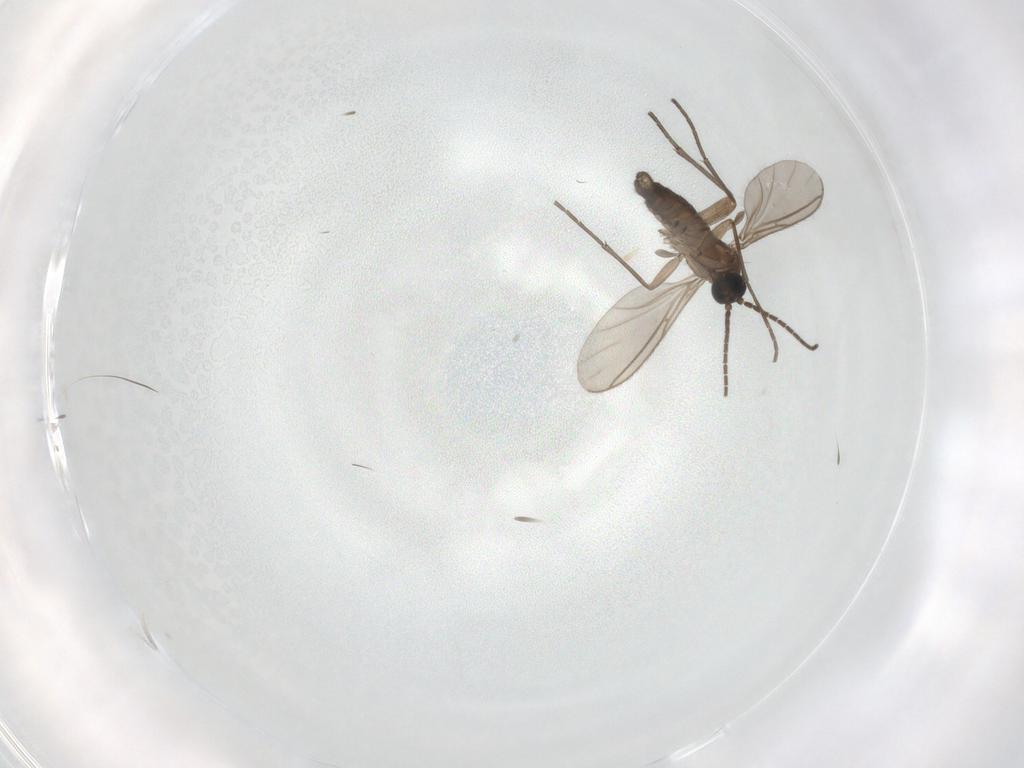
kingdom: Animalia
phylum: Arthropoda
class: Insecta
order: Diptera
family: Sciaridae
